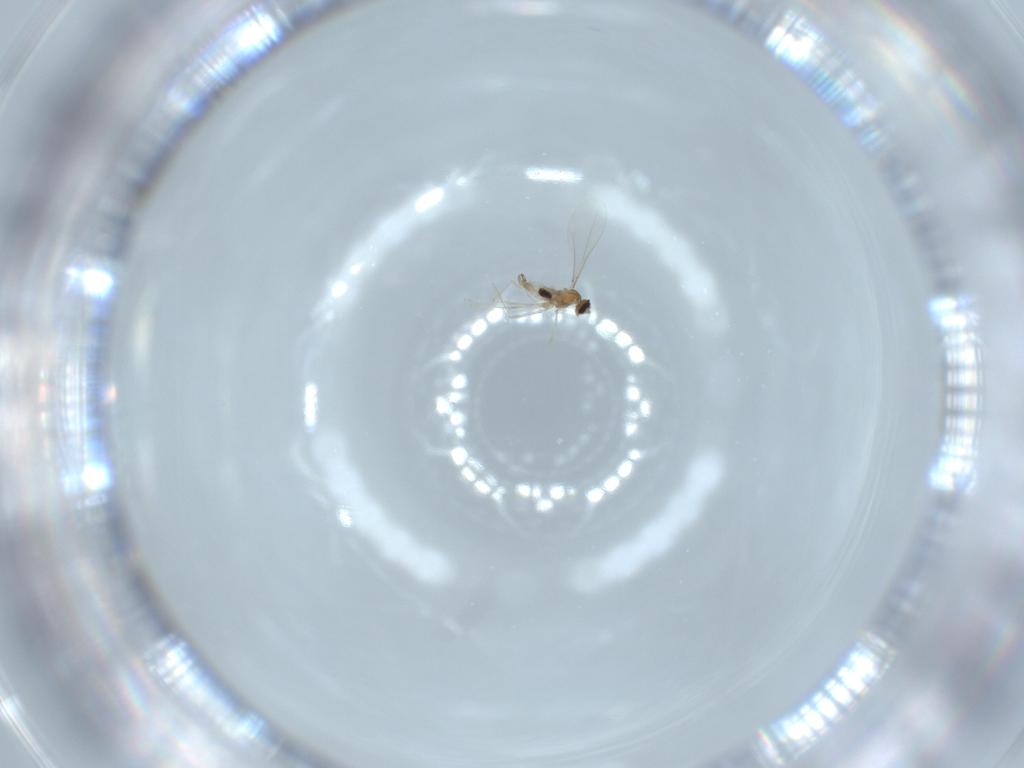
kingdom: Animalia
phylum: Arthropoda
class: Insecta
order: Diptera
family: Cecidomyiidae
